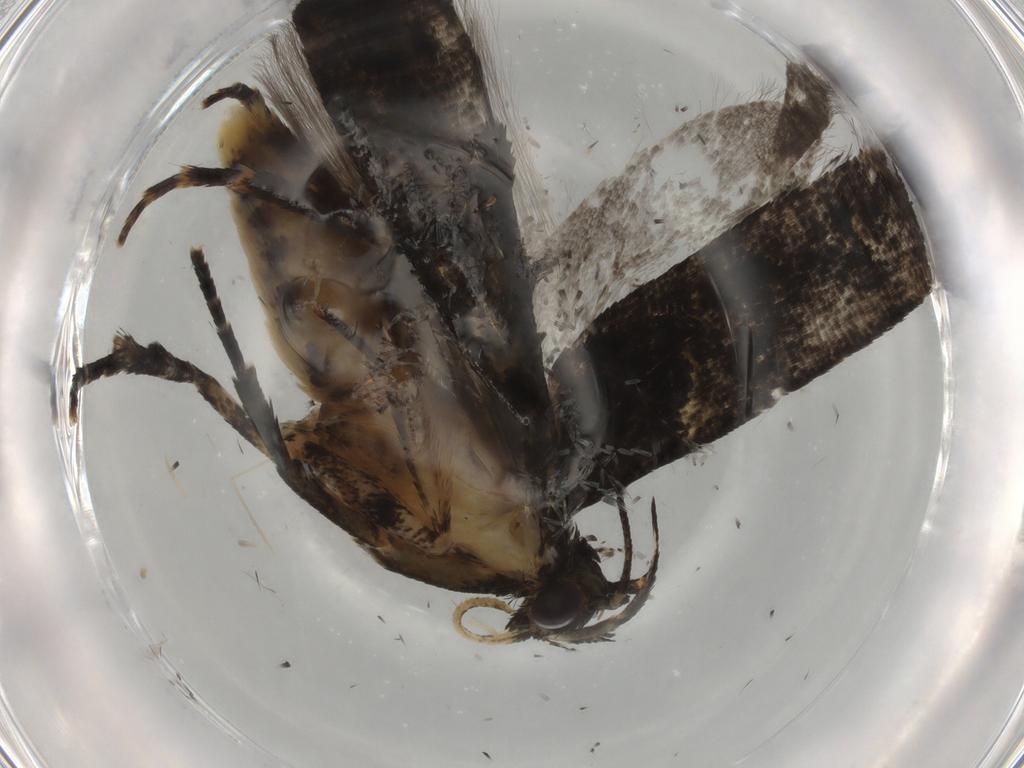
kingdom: Animalia
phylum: Arthropoda
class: Insecta
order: Lepidoptera
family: Gelechiidae
